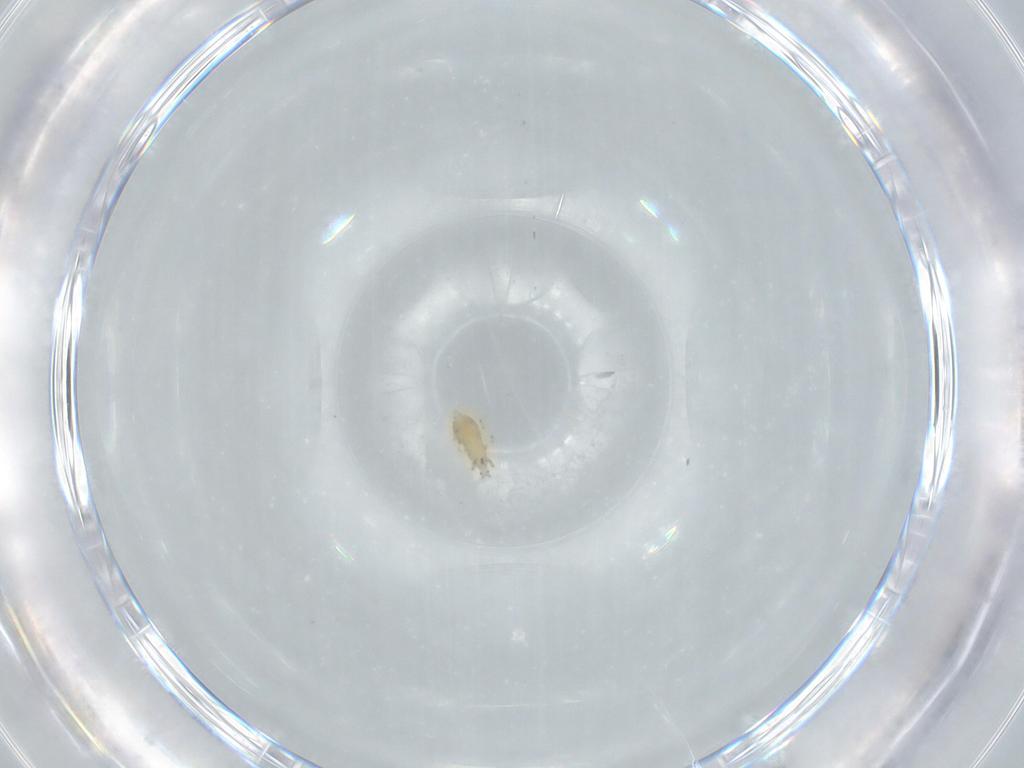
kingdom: Animalia
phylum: Arthropoda
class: Insecta
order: Thysanoptera
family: Thripidae
